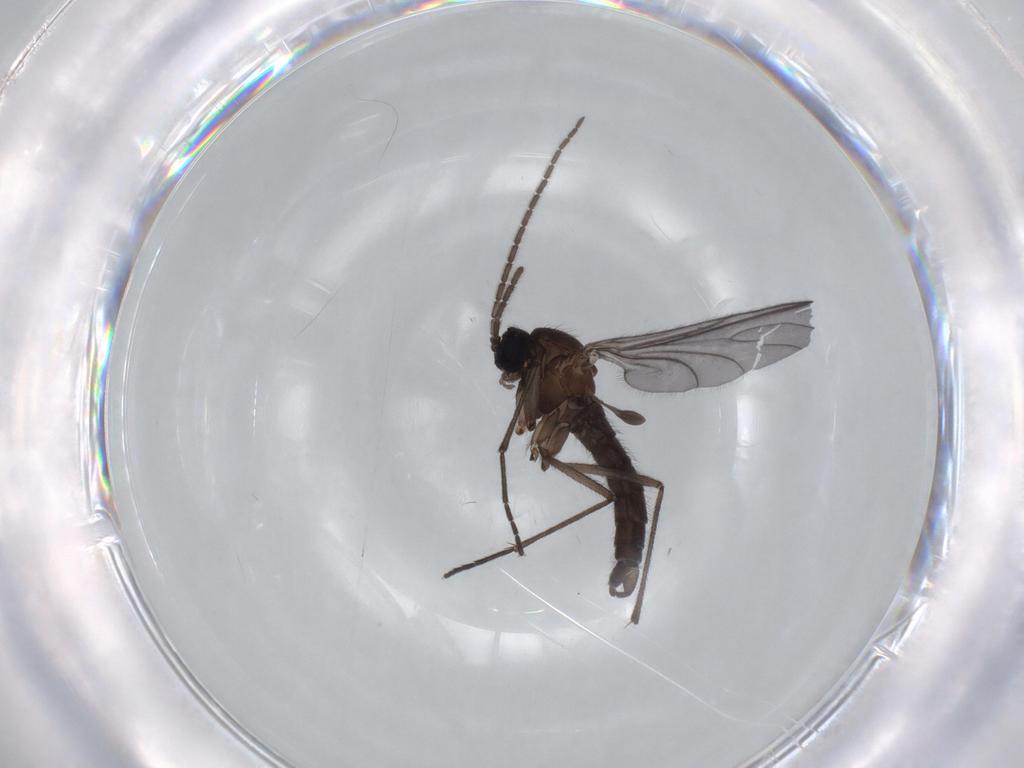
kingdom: Animalia
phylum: Arthropoda
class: Insecta
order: Diptera
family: Sciaridae
